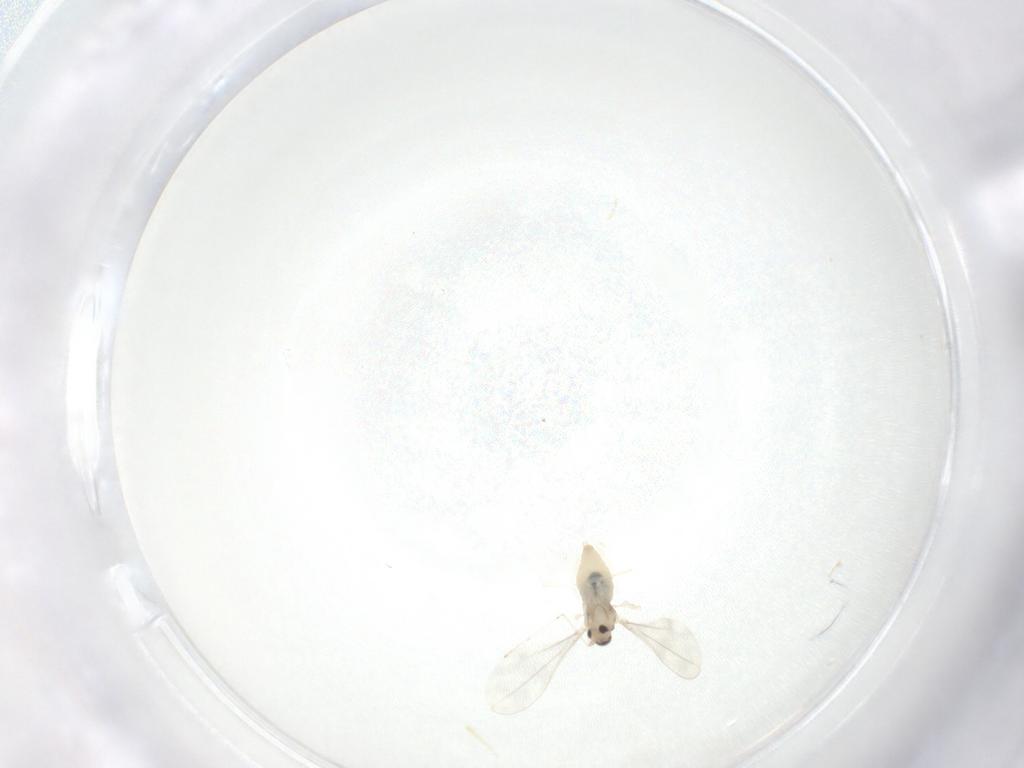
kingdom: Animalia
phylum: Arthropoda
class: Insecta
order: Diptera
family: Cecidomyiidae
